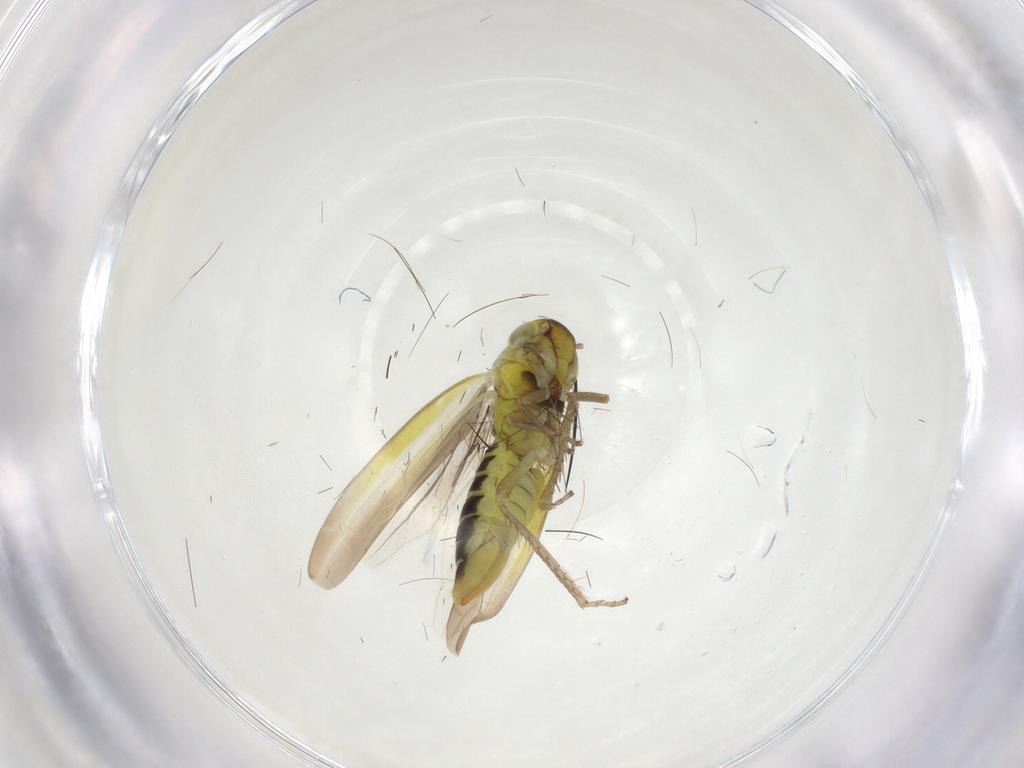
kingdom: Animalia
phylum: Arthropoda
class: Insecta
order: Hemiptera
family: Cicadellidae
